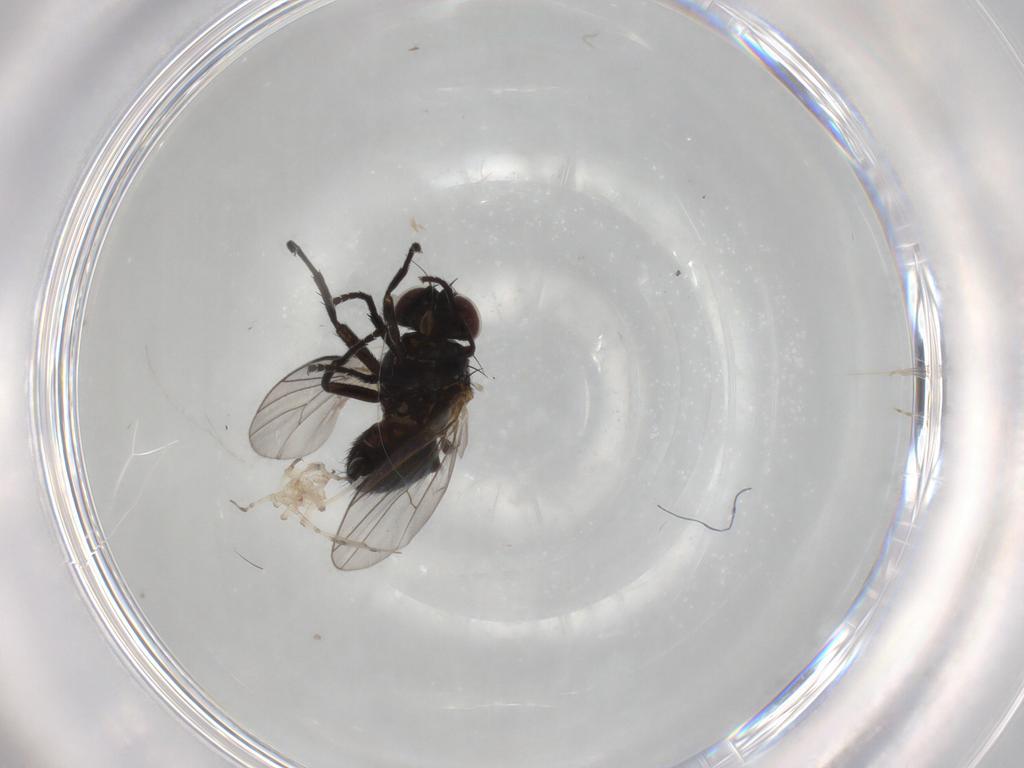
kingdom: Animalia
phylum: Arthropoda
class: Insecta
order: Diptera
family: Agromyzidae
